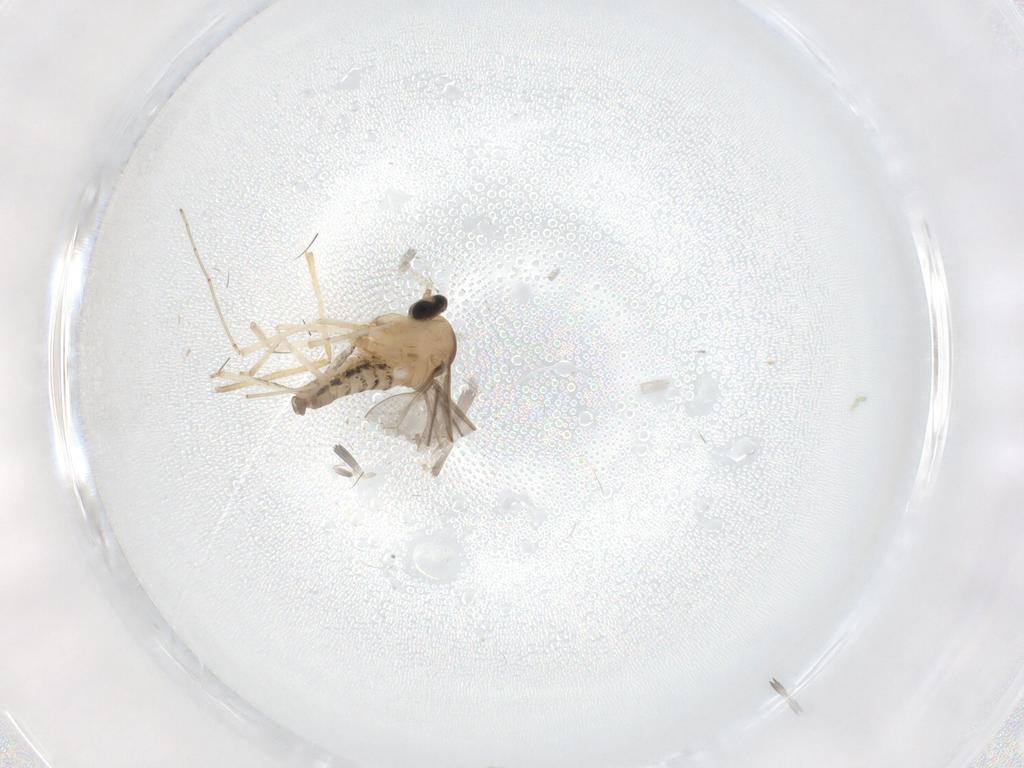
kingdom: Animalia
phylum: Arthropoda
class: Insecta
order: Diptera
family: Cecidomyiidae
